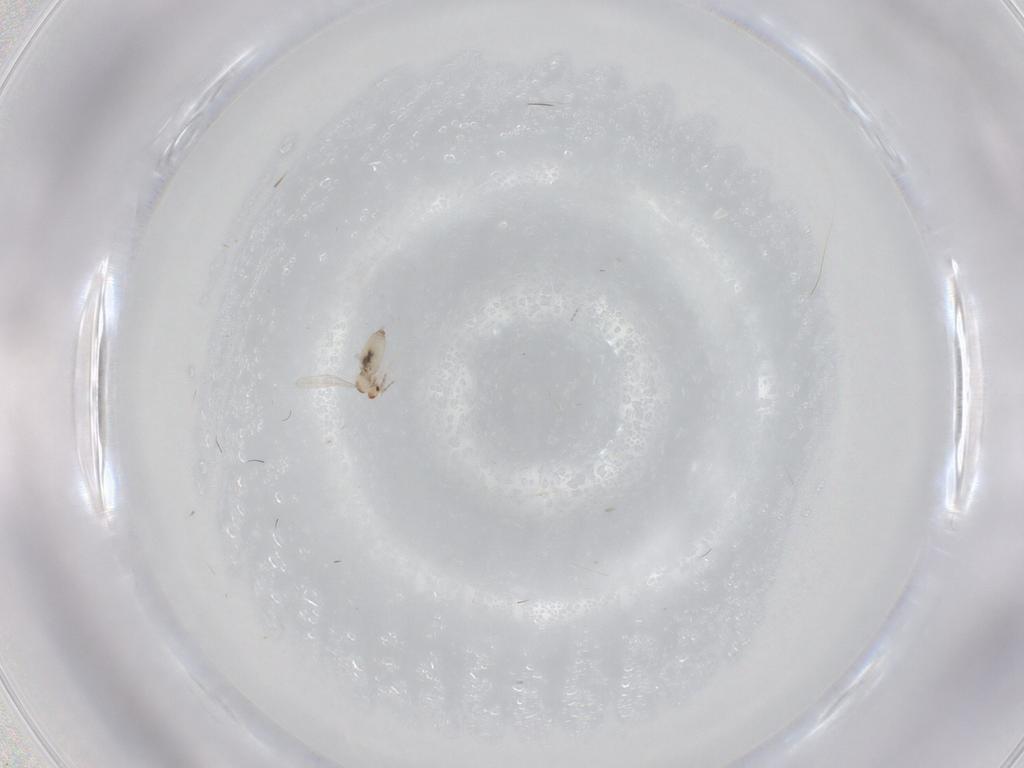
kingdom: Animalia
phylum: Arthropoda
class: Insecta
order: Diptera
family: Cecidomyiidae
